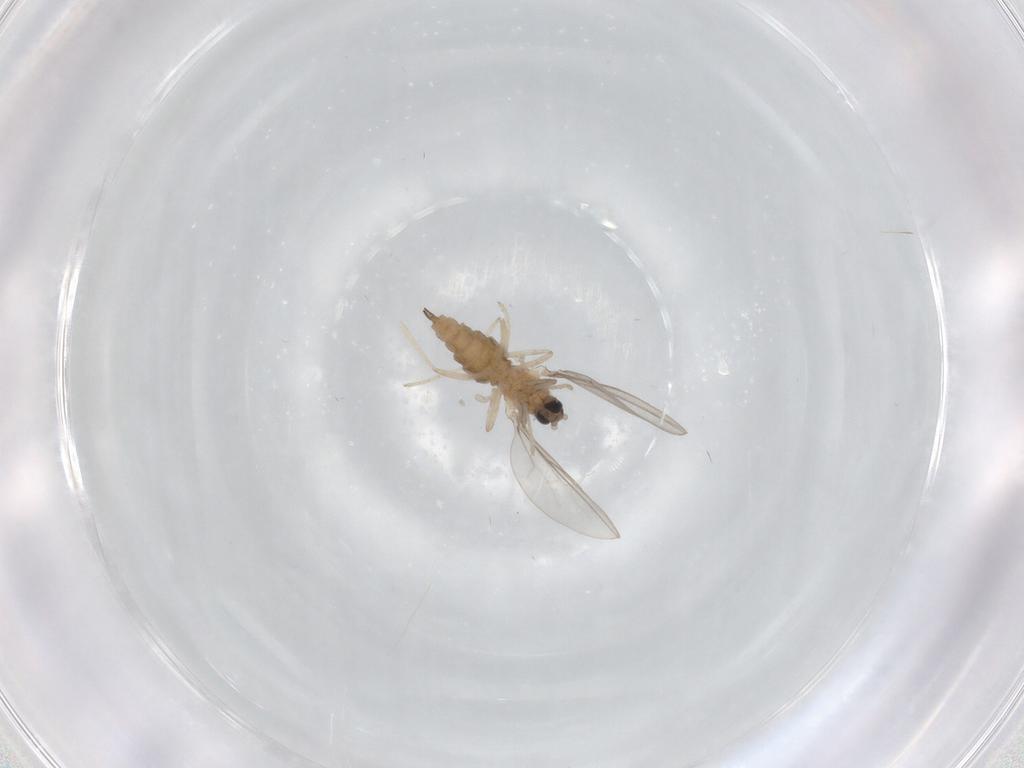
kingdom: Animalia
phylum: Arthropoda
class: Insecta
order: Diptera
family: Cecidomyiidae
